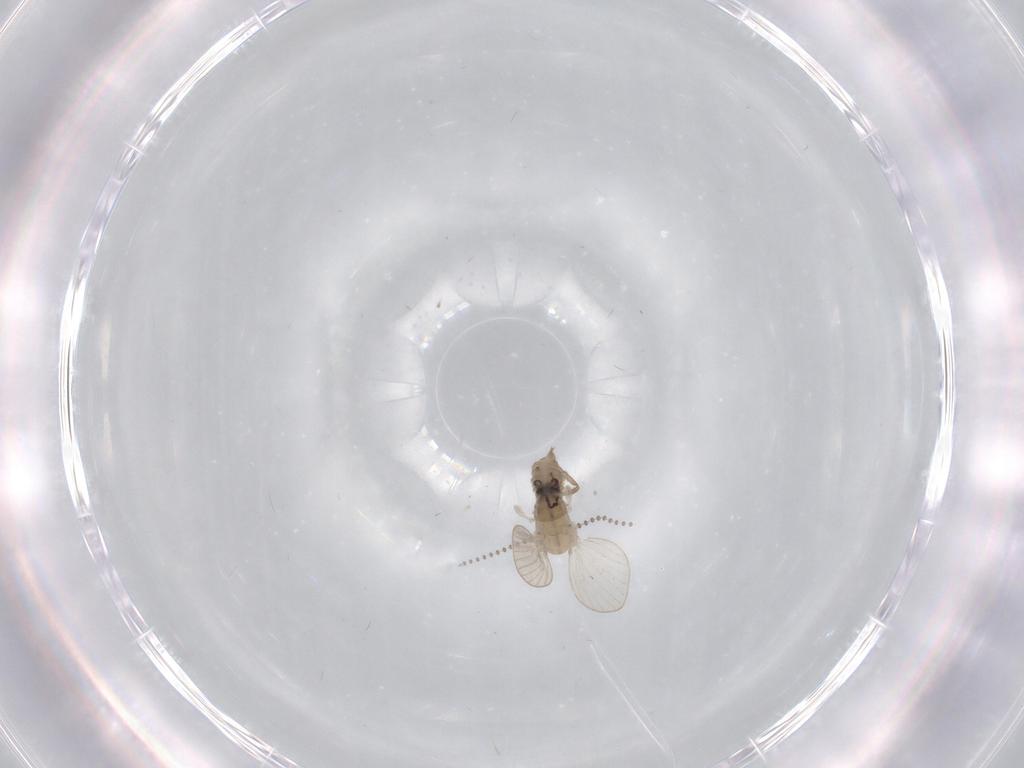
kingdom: Animalia
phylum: Arthropoda
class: Insecta
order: Diptera
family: Psychodidae
